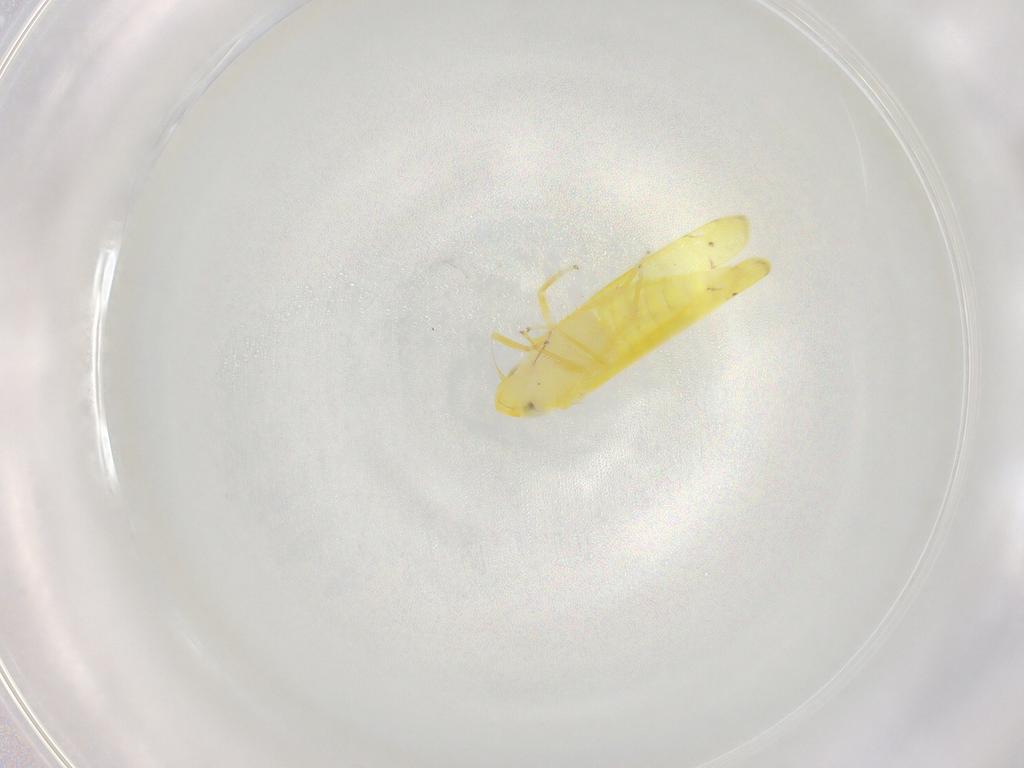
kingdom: Animalia
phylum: Arthropoda
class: Insecta
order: Hemiptera
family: Cicadellidae
